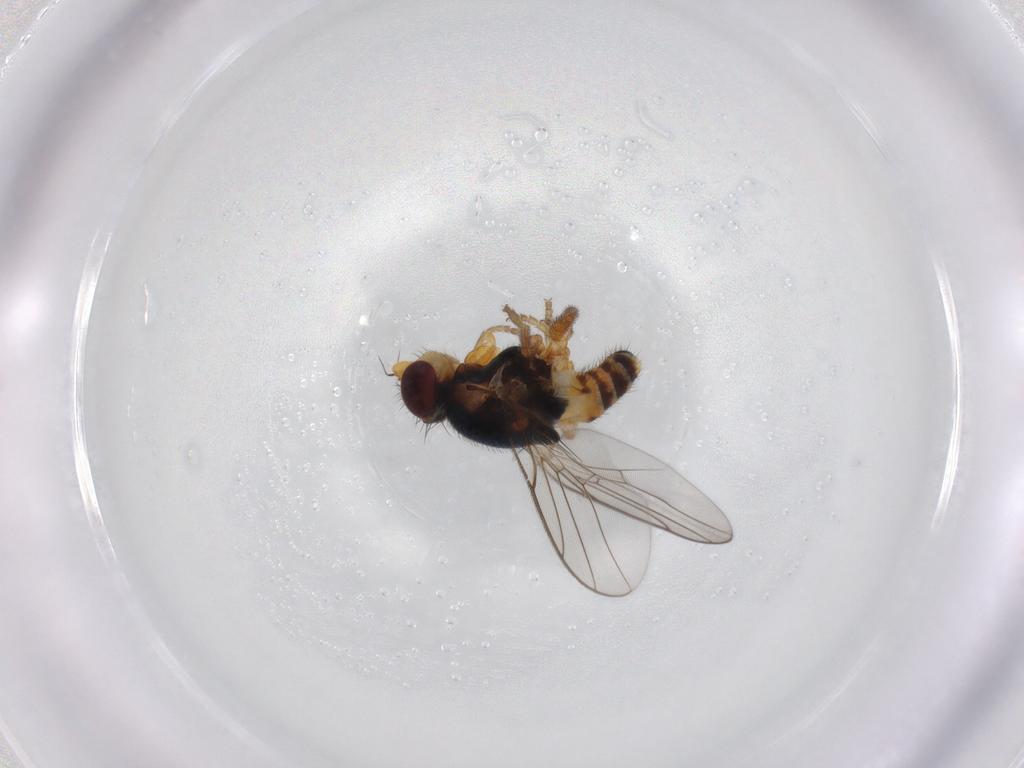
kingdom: Animalia
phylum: Arthropoda
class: Insecta
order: Diptera
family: Chloropidae
